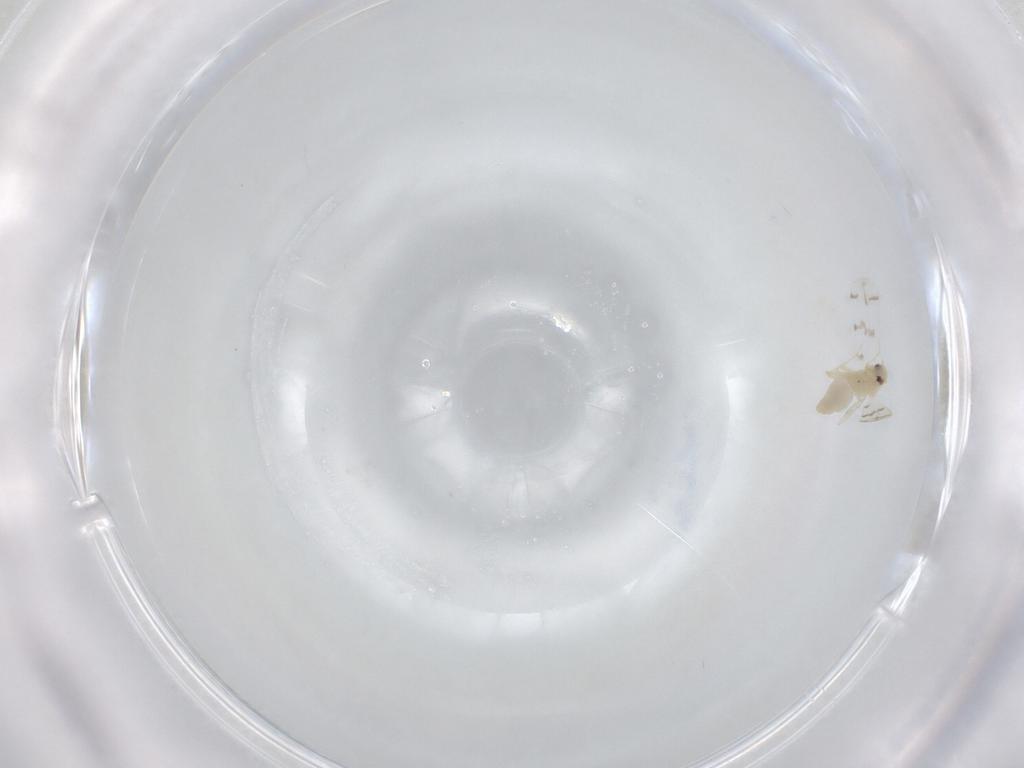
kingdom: Animalia
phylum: Arthropoda
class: Insecta
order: Hemiptera
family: Aleyrodidae
